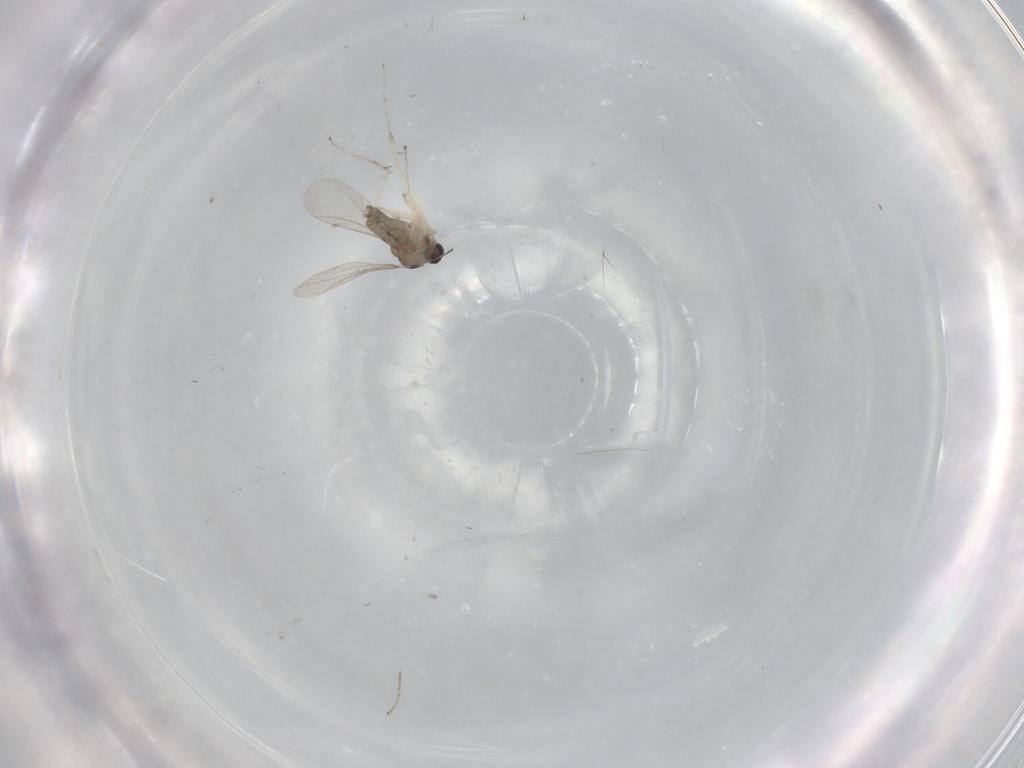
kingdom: Animalia
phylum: Arthropoda
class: Insecta
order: Diptera
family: Cecidomyiidae
